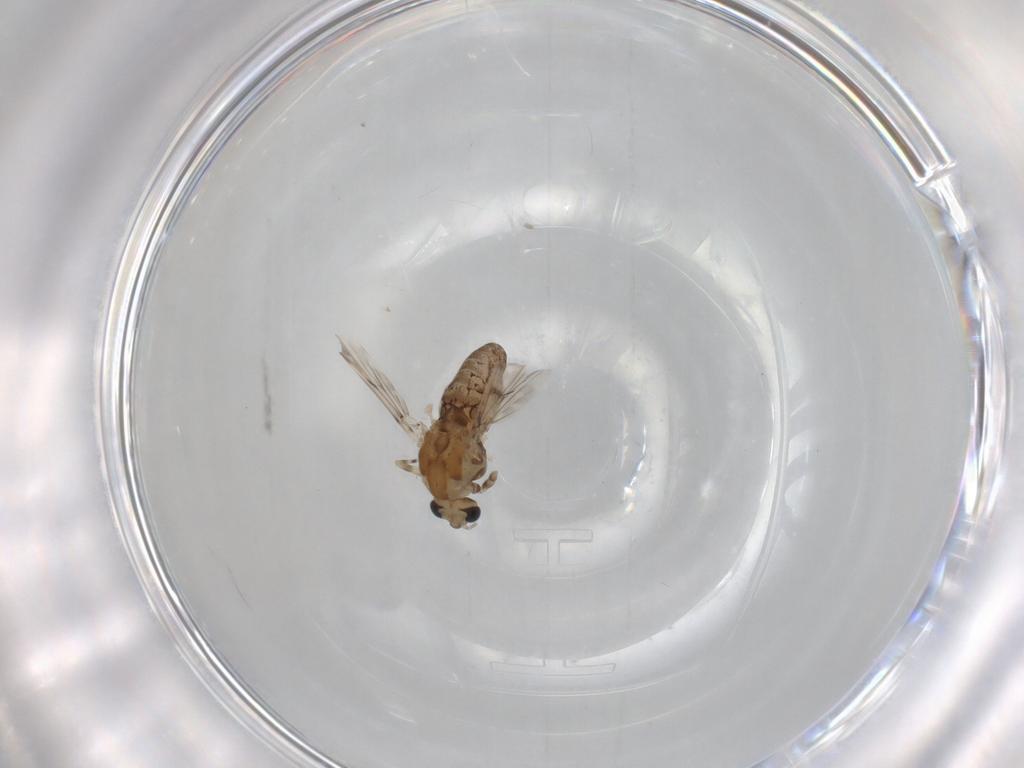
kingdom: Animalia
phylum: Arthropoda
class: Insecta
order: Diptera
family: Chironomidae
